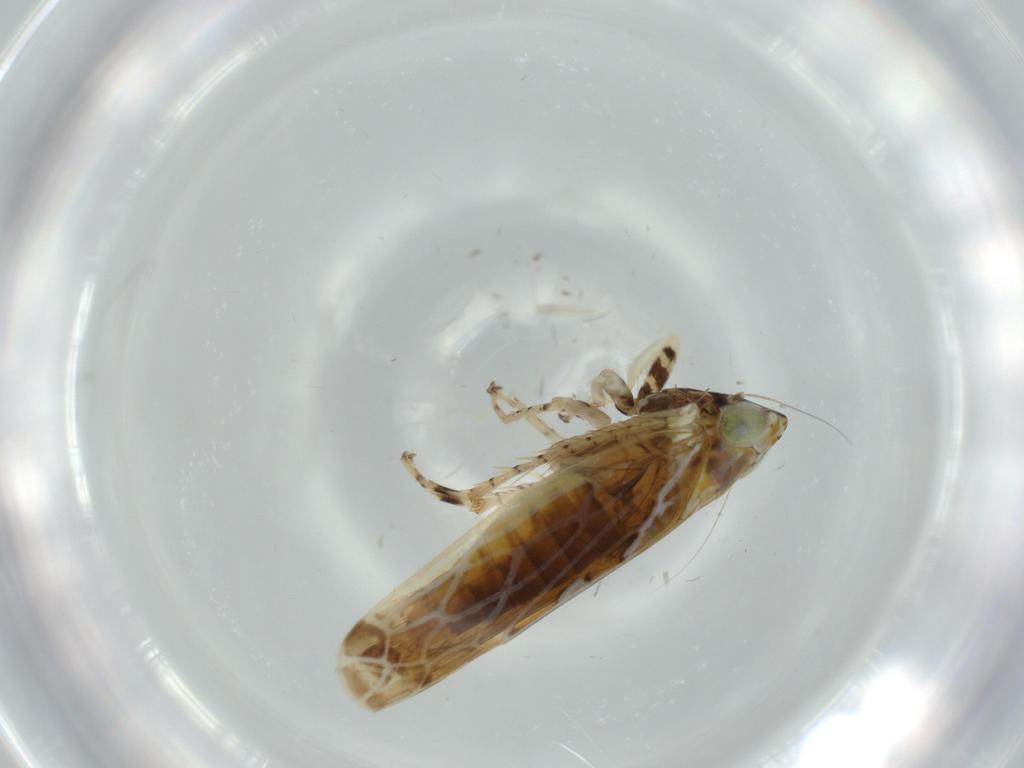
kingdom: Animalia
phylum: Arthropoda
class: Insecta
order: Hemiptera
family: Cicadellidae
